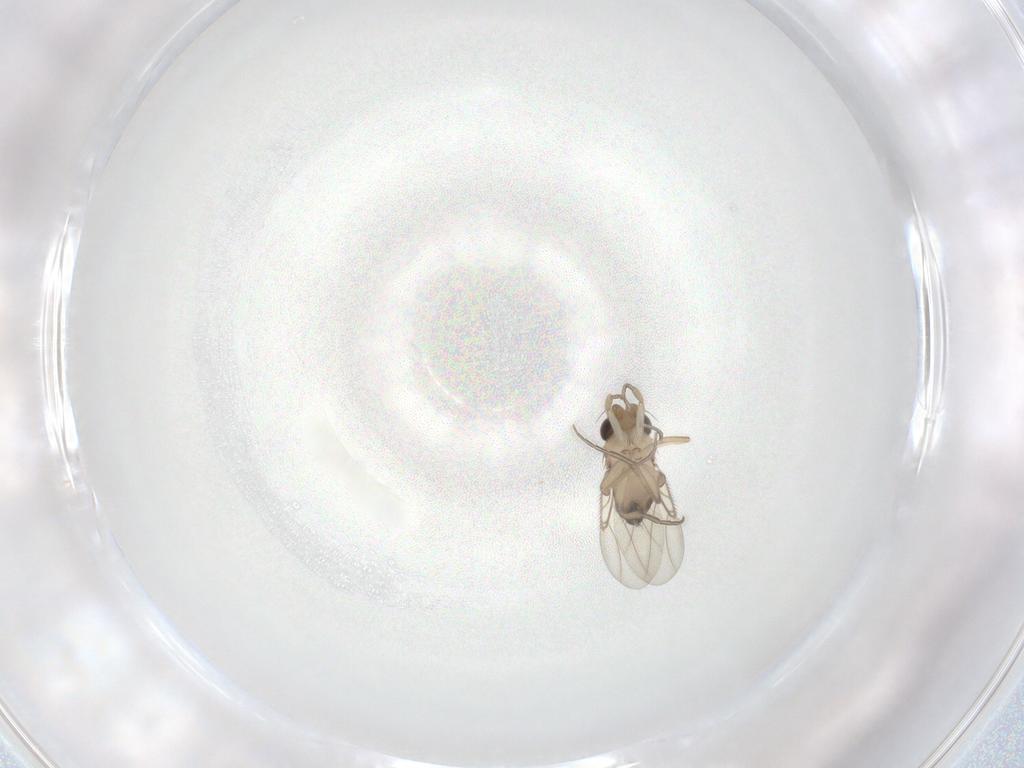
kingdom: Animalia
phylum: Arthropoda
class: Insecta
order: Diptera
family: Phoridae
